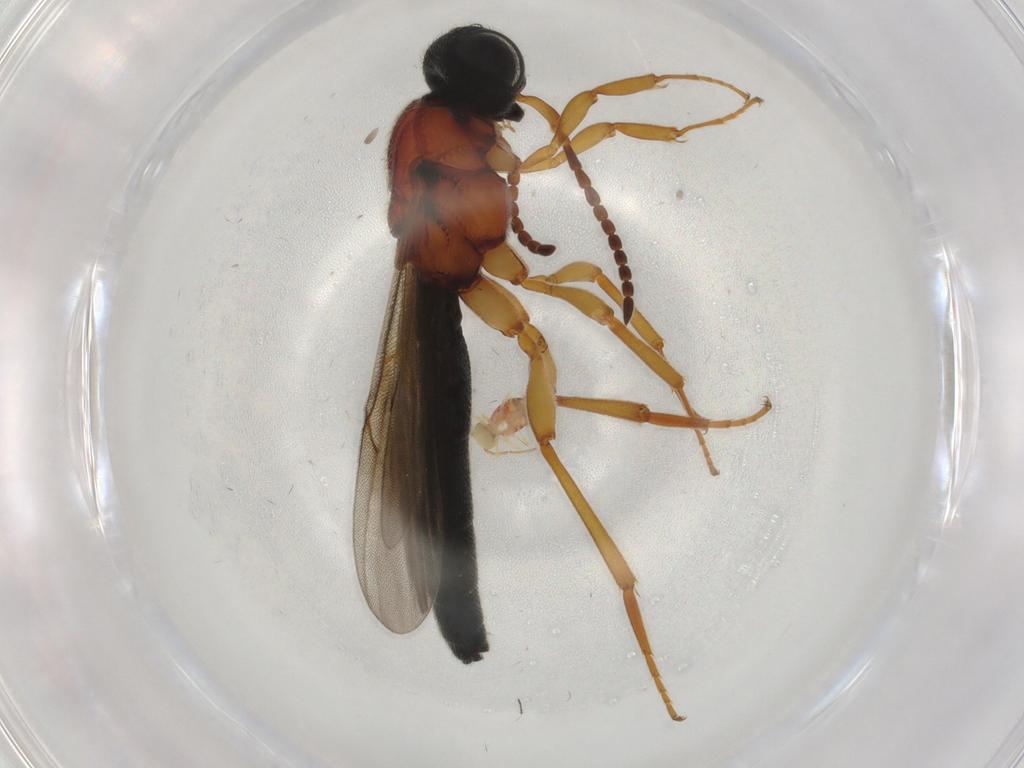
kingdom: Animalia
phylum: Arthropoda
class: Insecta
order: Hymenoptera
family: Scelionidae
